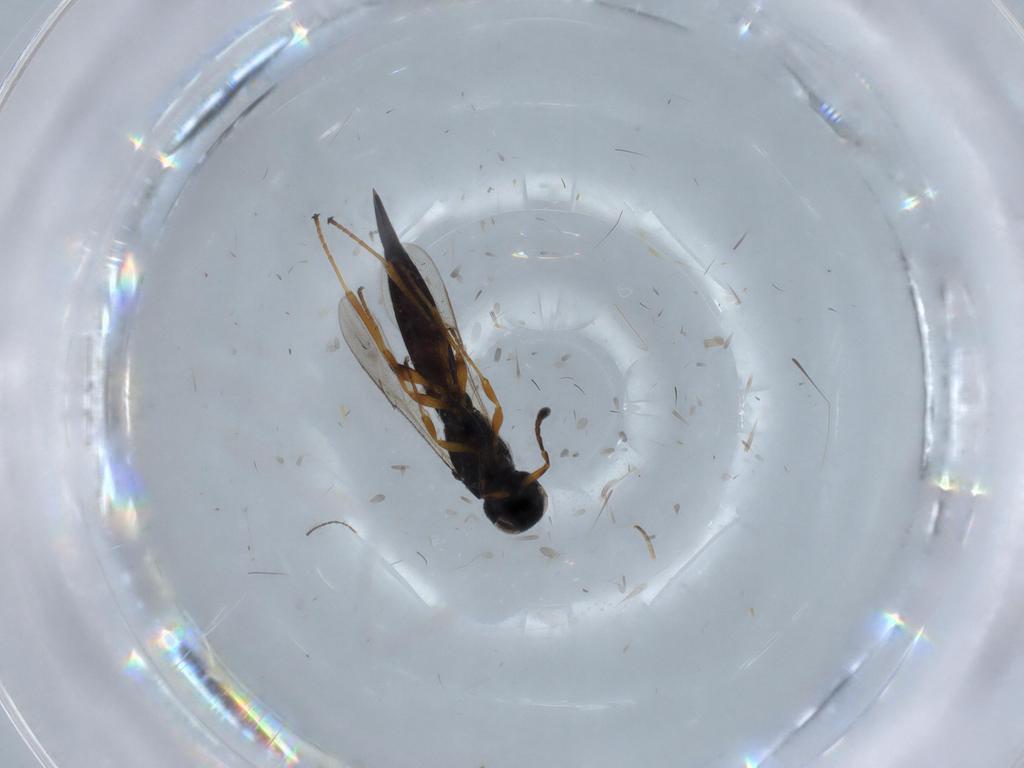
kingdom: Animalia
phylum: Arthropoda
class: Insecta
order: Hymenoptera
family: Scelionidae
